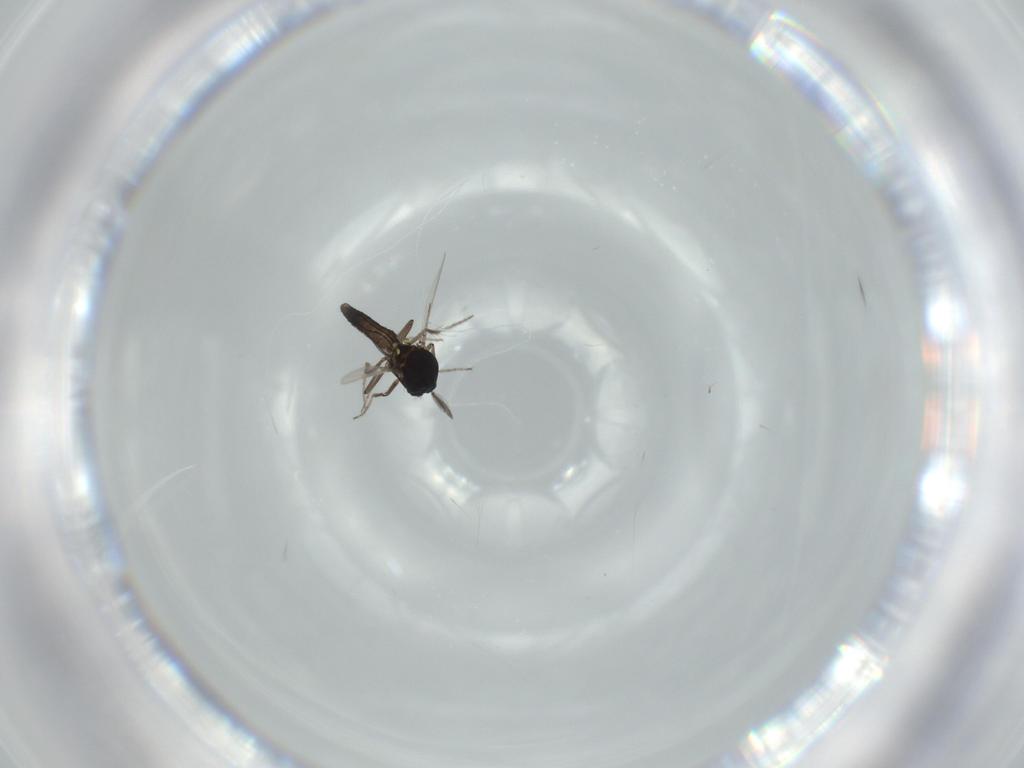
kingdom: Animalia
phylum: Arthropoda
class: Insecta
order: Diptera
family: Ceratopogonidae
